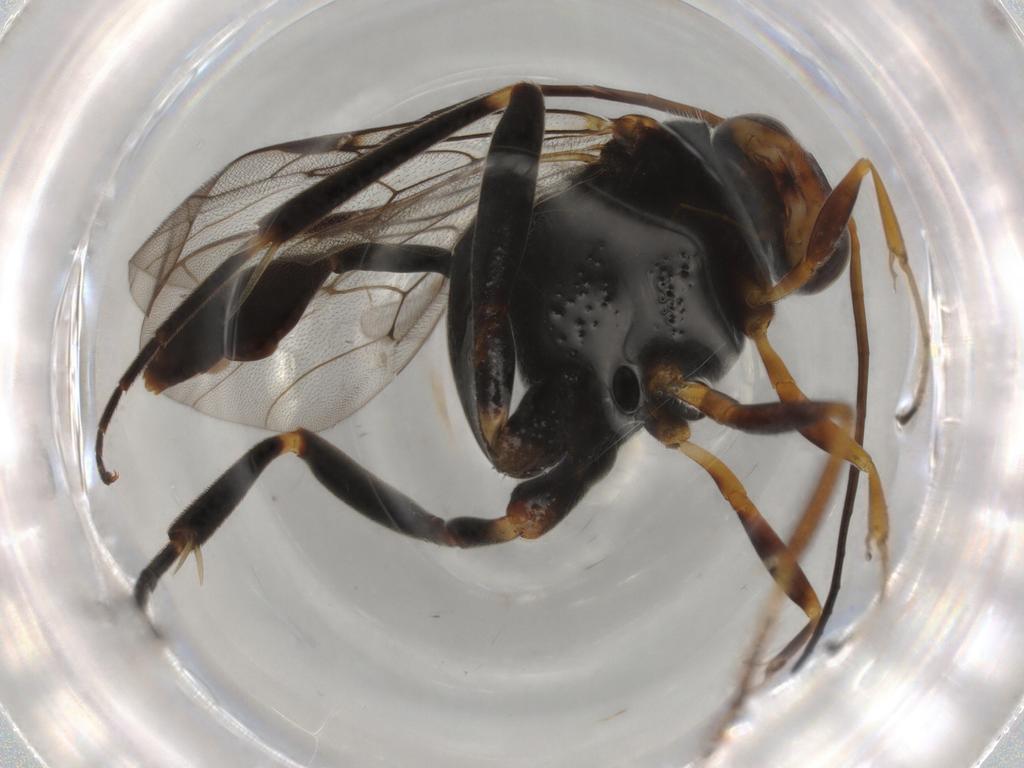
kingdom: Animalia
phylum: Arthropoda
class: Insecta
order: Hymenoptera
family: Evaniidae
